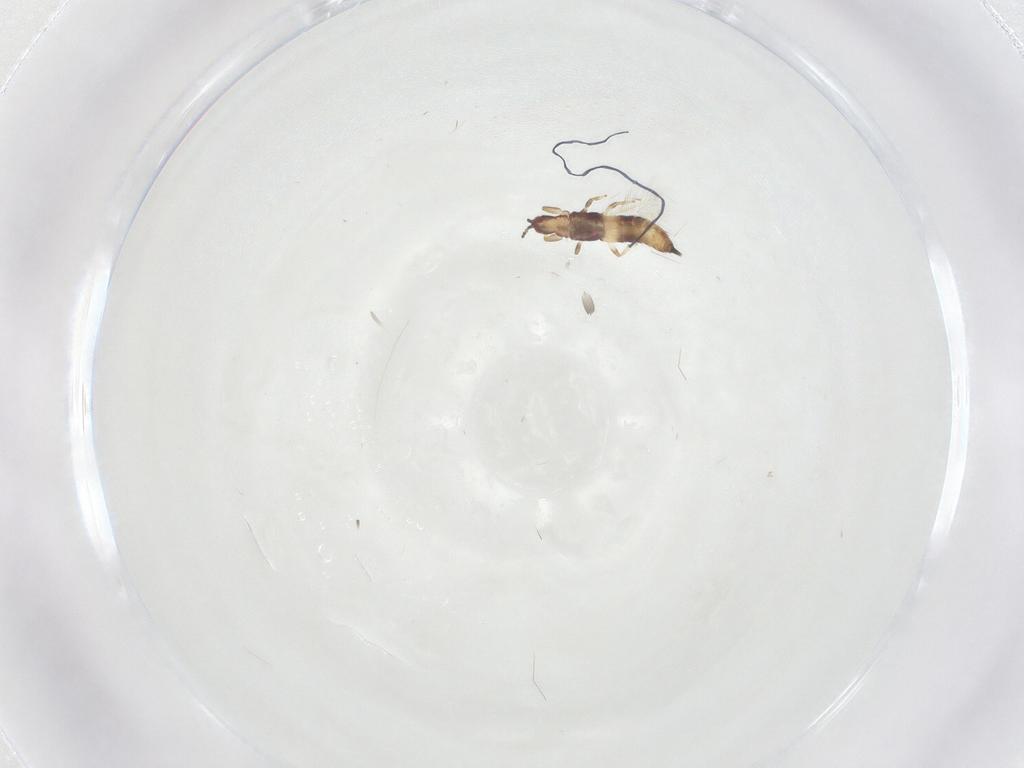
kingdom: Animalia
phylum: Arthropoda
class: Insecta
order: Thysanoptera
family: Phlaeothripidae
